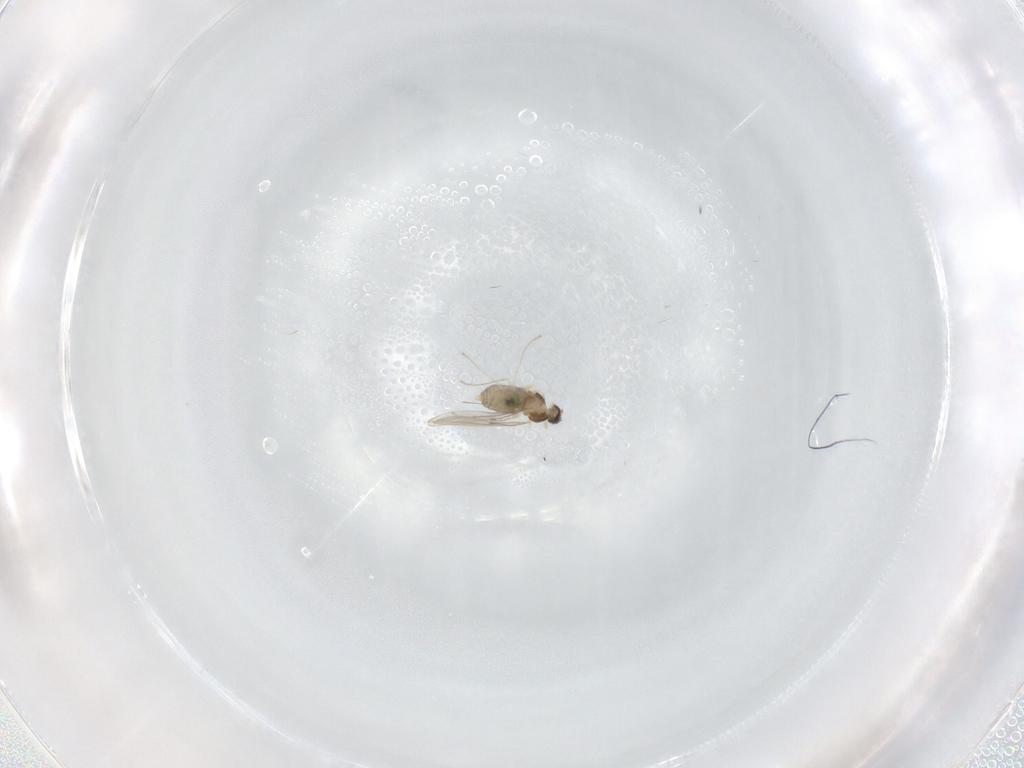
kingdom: Animalia
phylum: Arthropoda
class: Insecta
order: Diptera
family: Cecidomyiidae
